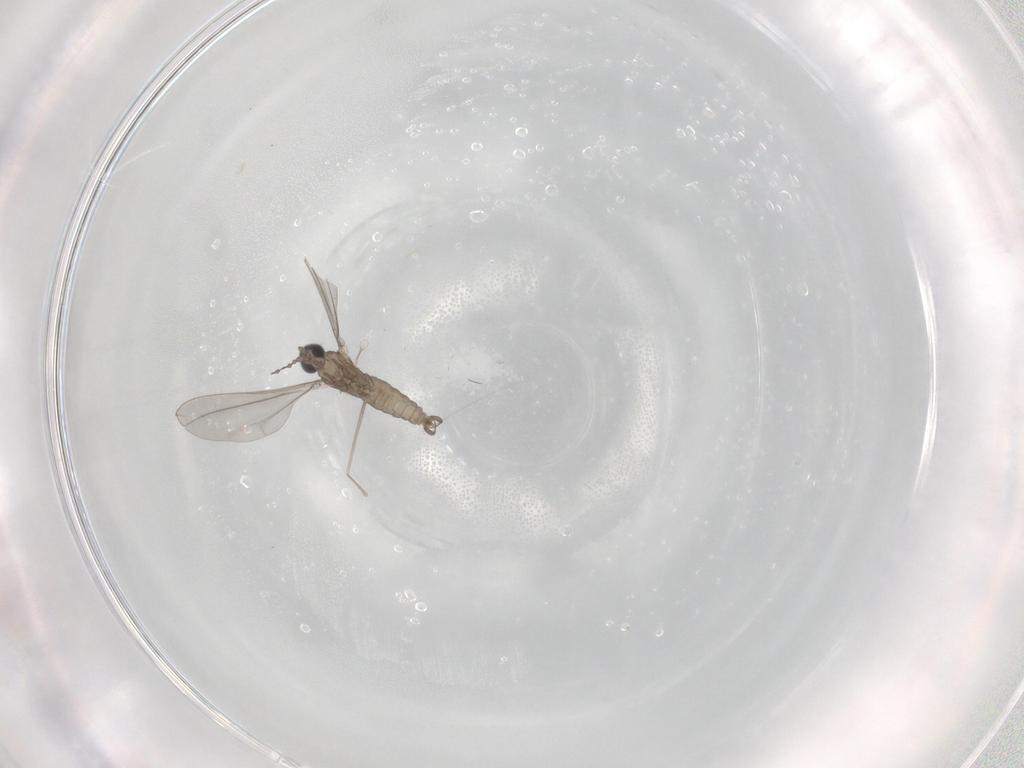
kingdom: Animalia
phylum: Arthropoda
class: Insecta
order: Diptera
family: Cecidomyiidae
